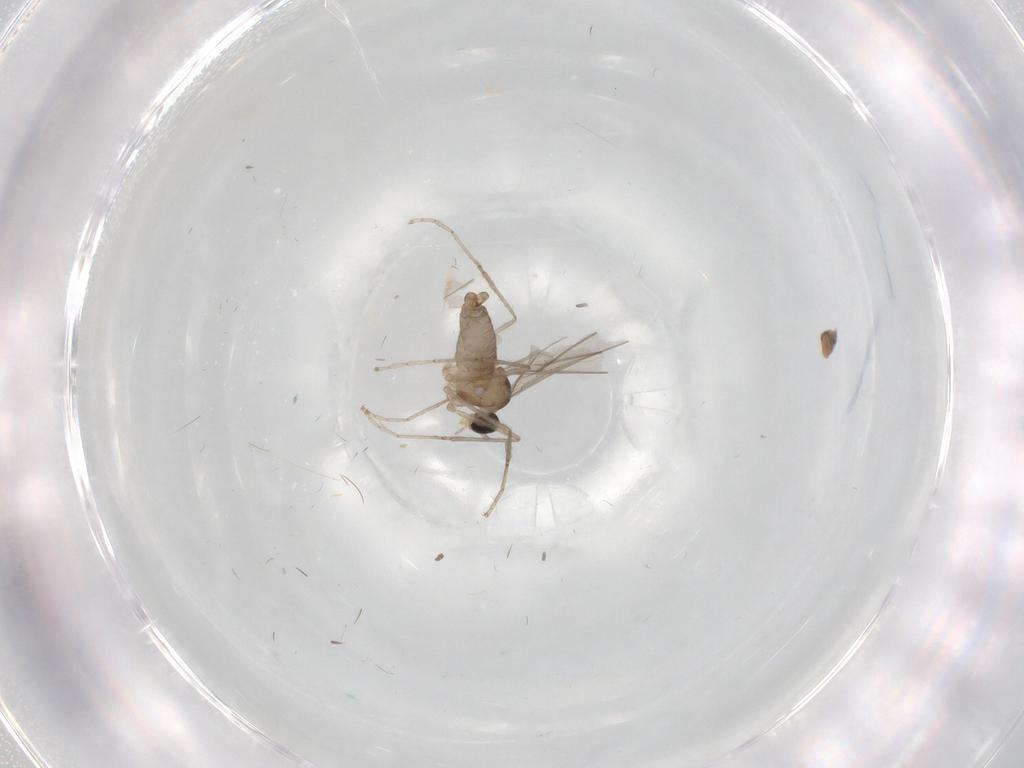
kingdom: Animalia
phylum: Arthropoda
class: Insecta
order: Diptera
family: Cecidomyiidae
